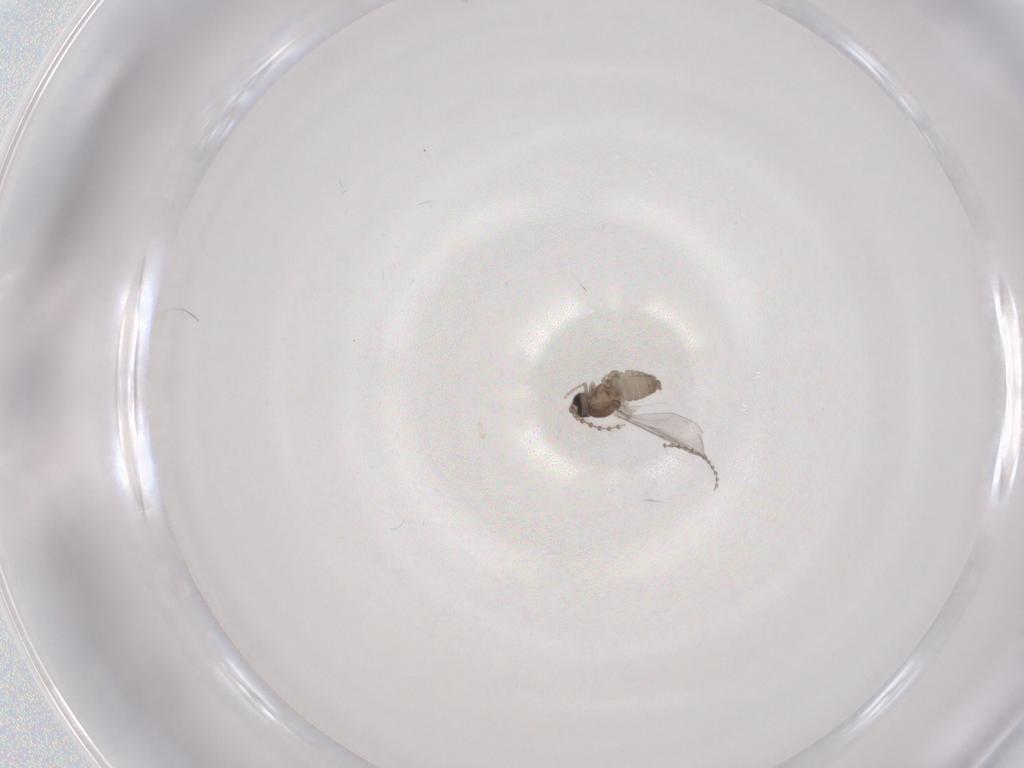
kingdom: Animalia
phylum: Arthropoda
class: Insecta
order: Diptera
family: Cecidomyiidae
